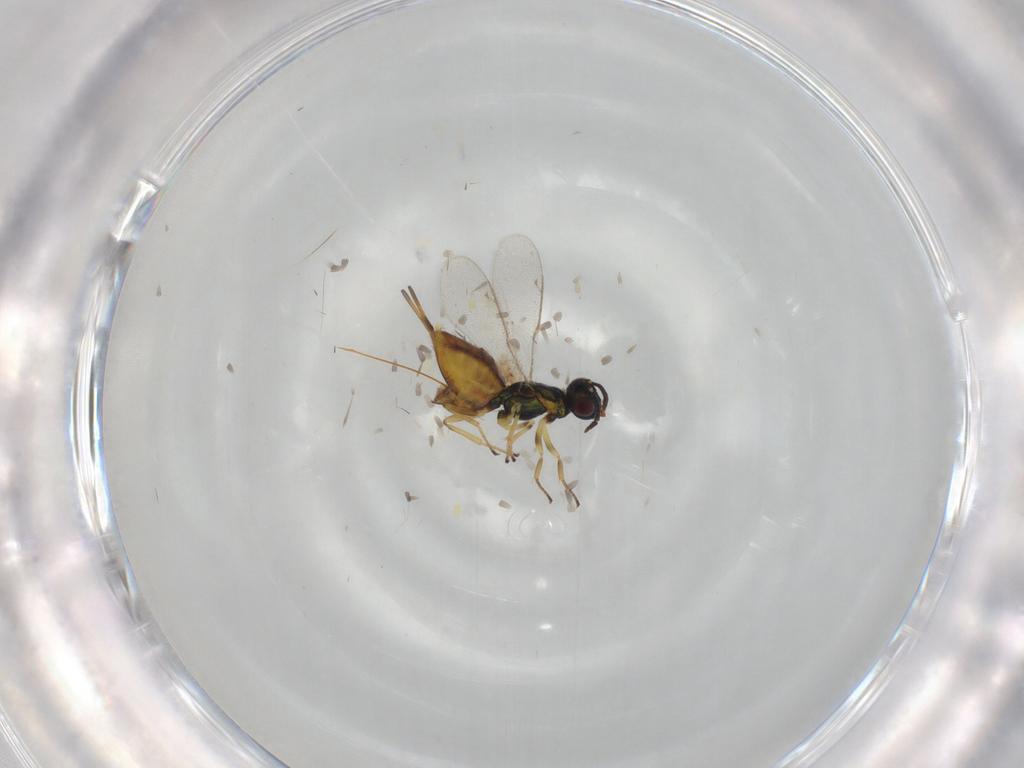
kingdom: Animalia
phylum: Arthropoda
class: Insecta
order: Hymenoptera
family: Eupelmidae
